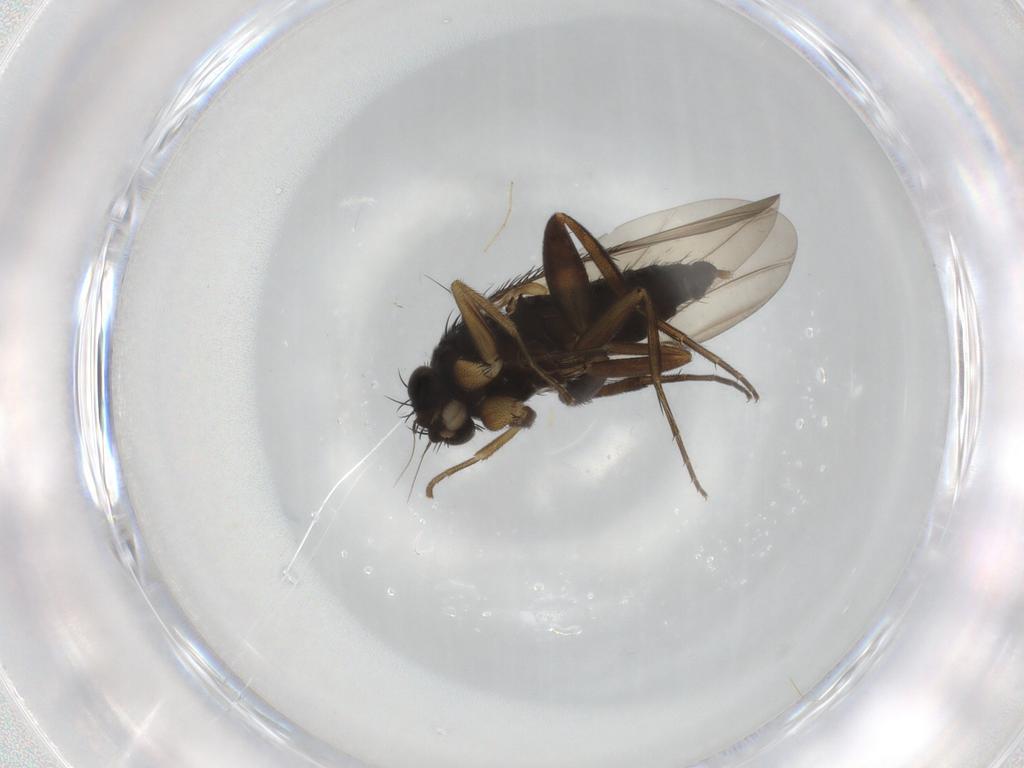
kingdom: Animalia
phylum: Arthropoda
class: Insecta
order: Diptera
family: Phoridae
